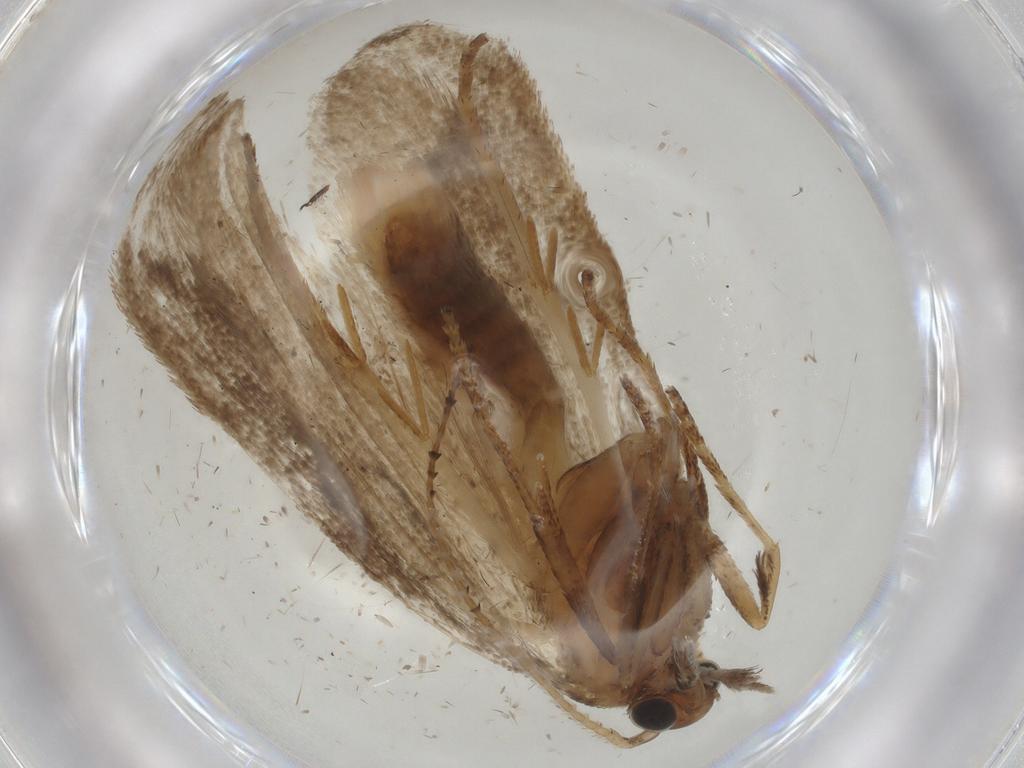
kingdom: Animalia
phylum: Arthropoda
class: Insecta
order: Lepidoptera
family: Plutellidae
